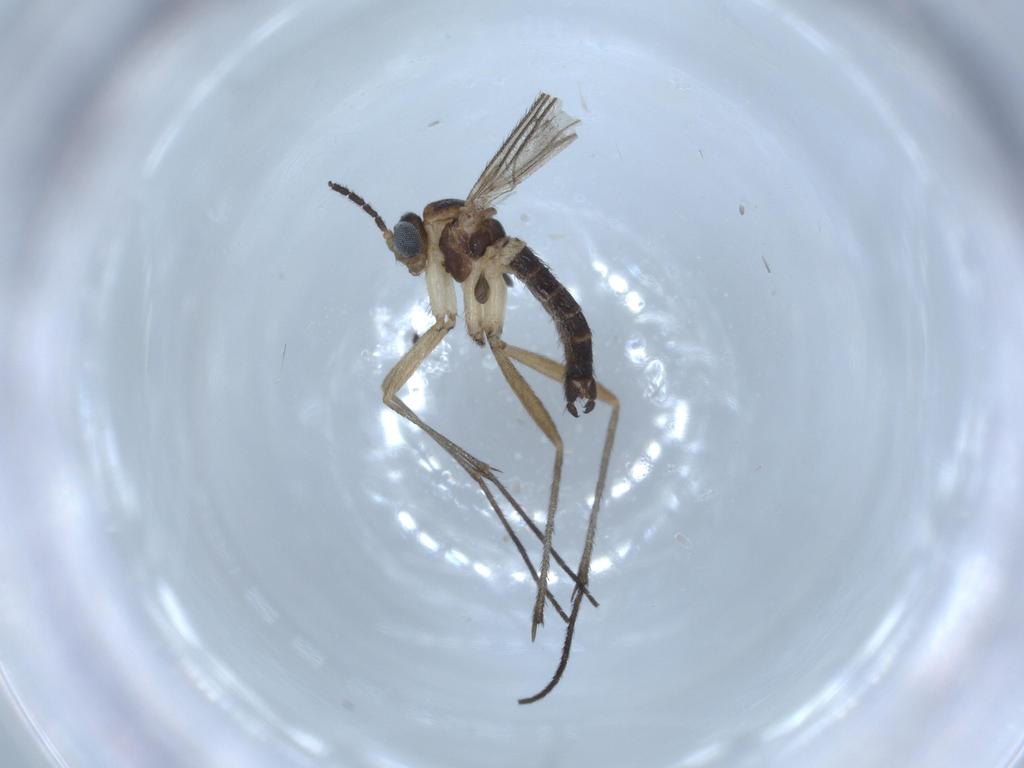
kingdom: Animalia
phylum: Arthropoda
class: Insecta
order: Diptera
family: Sciaridae
